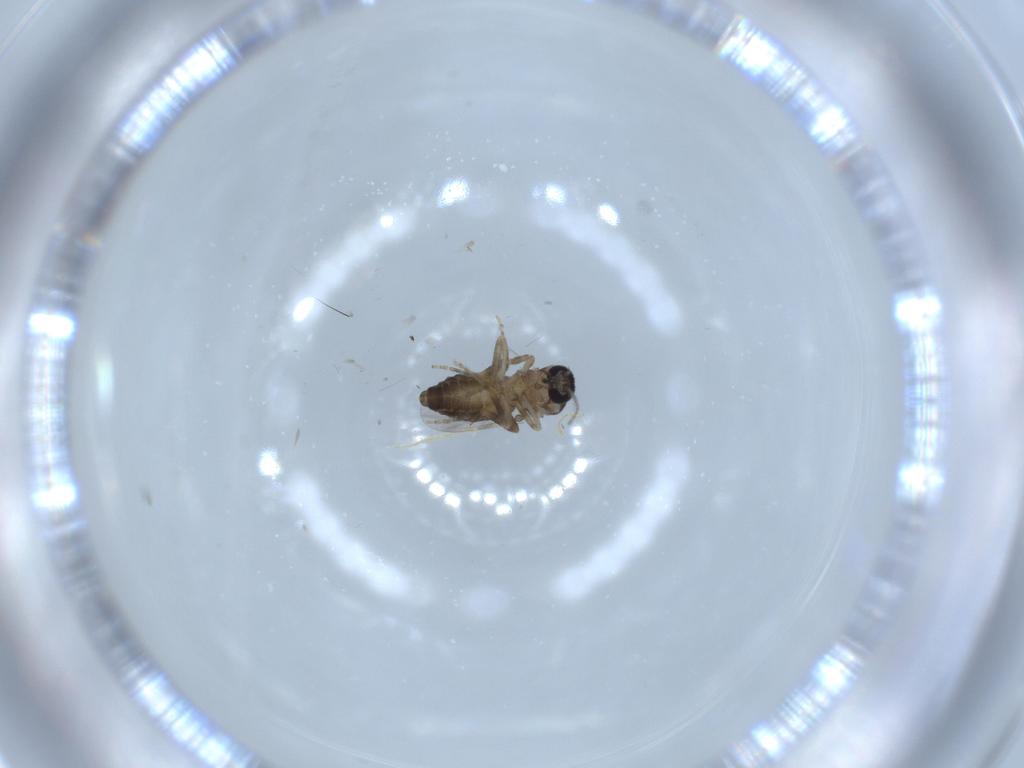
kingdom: Animalia
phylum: Arthropoda
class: Insecta
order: Diptera
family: Ceratopogonidae
